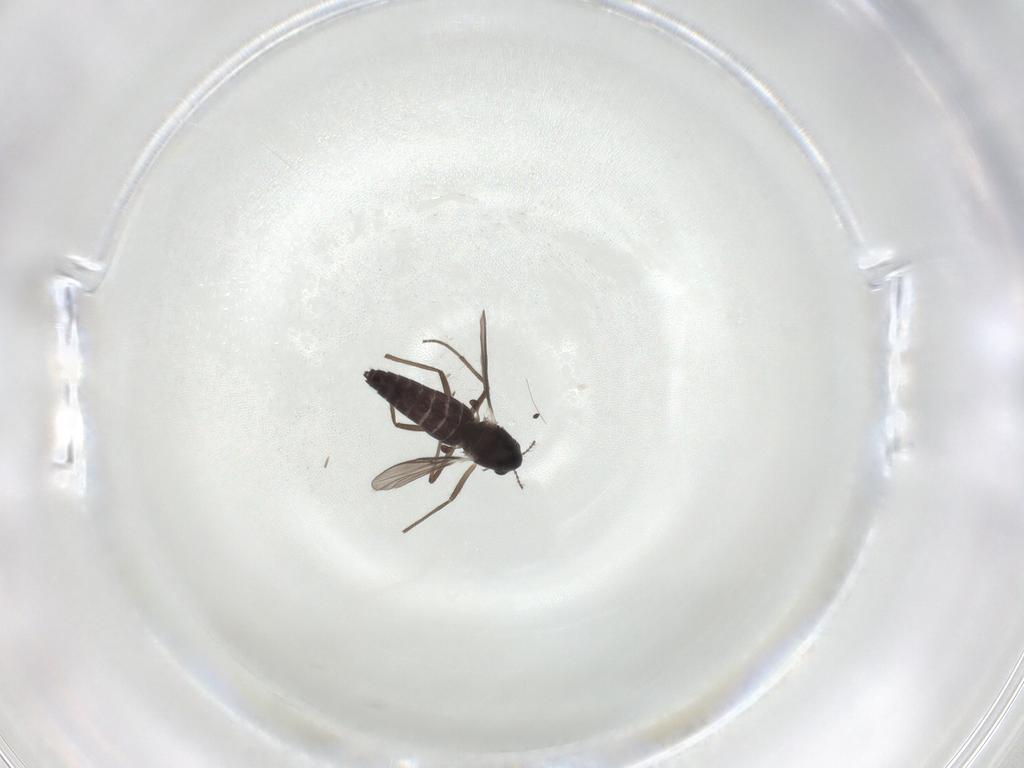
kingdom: Animalia
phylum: Arthropoda
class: Insecta
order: Diptera
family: Chironomidae
